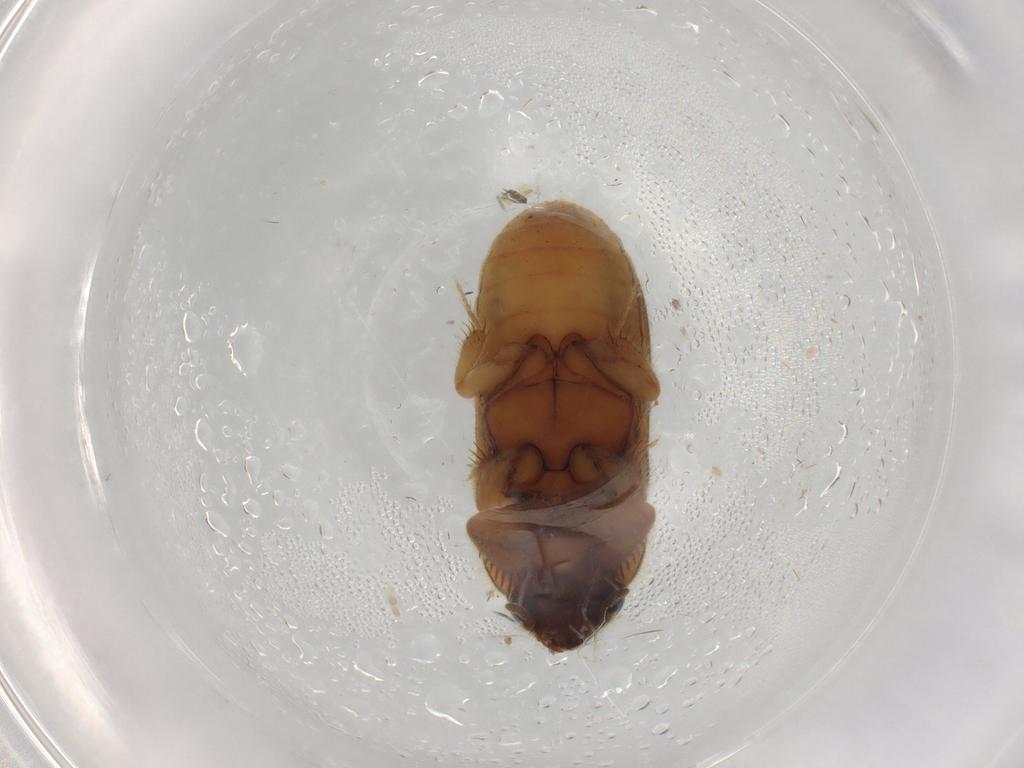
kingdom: Animalia
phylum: Arthropoda
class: Insecta
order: Coleoptera
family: Heteroceridae
